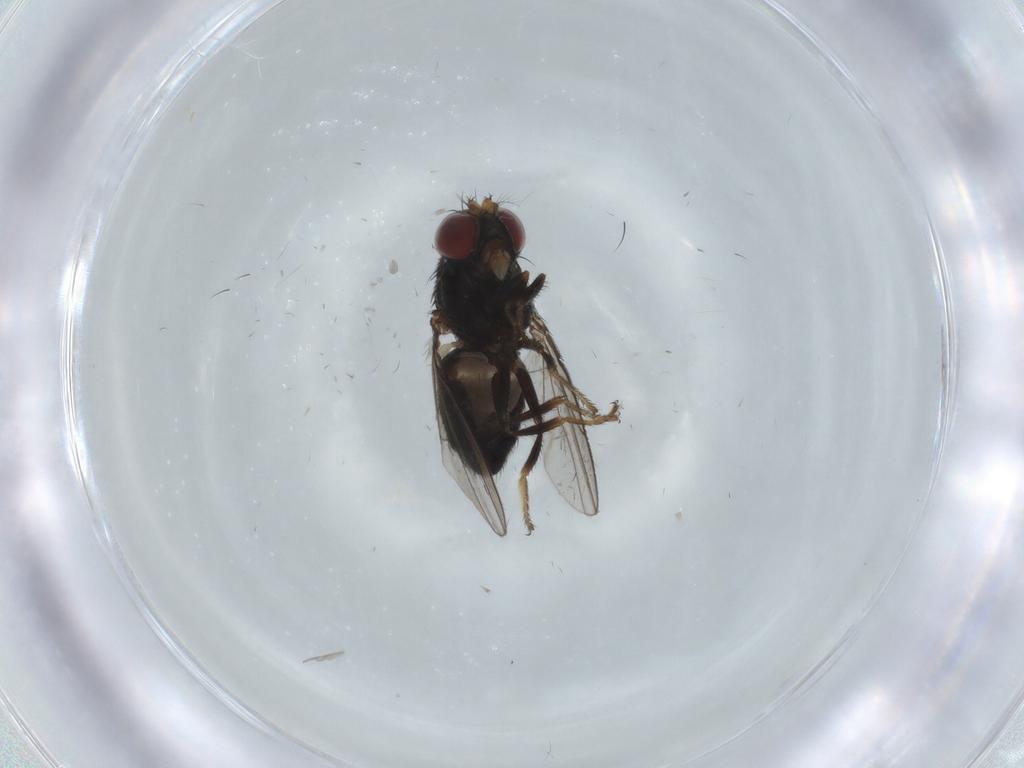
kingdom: Animalia
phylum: Arthropoda
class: Insecta
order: Diptera
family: Ephydridae
